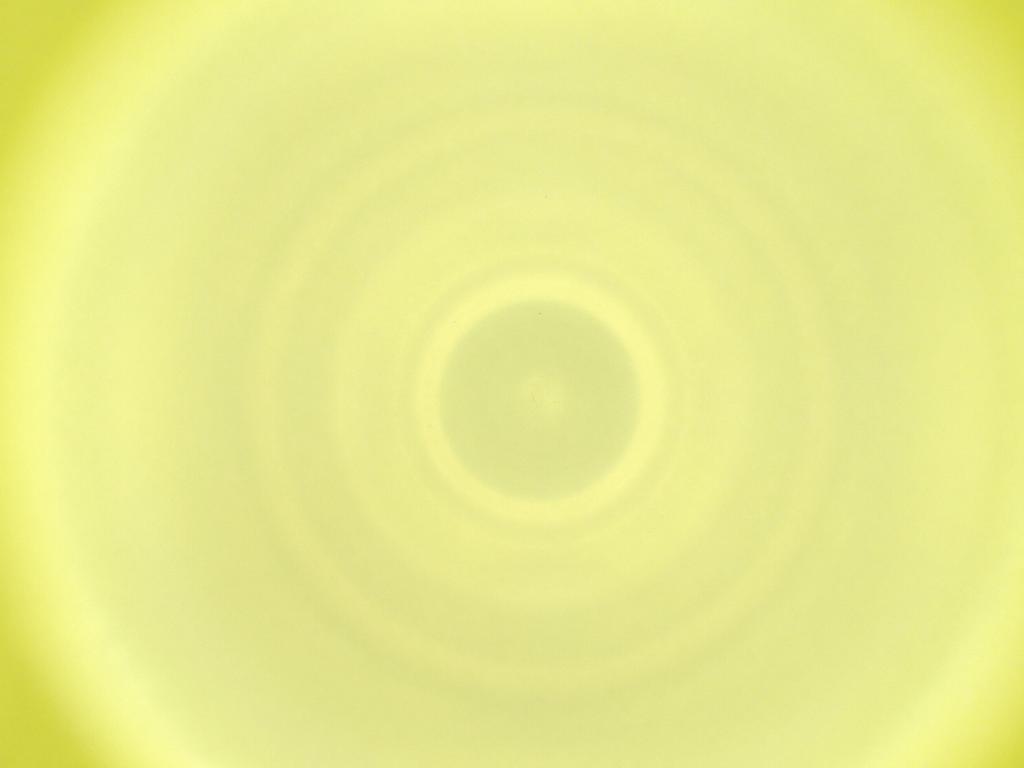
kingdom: Animalia
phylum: Arthropoda
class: Insecta
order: Diptera
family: Cecidomyiidae
